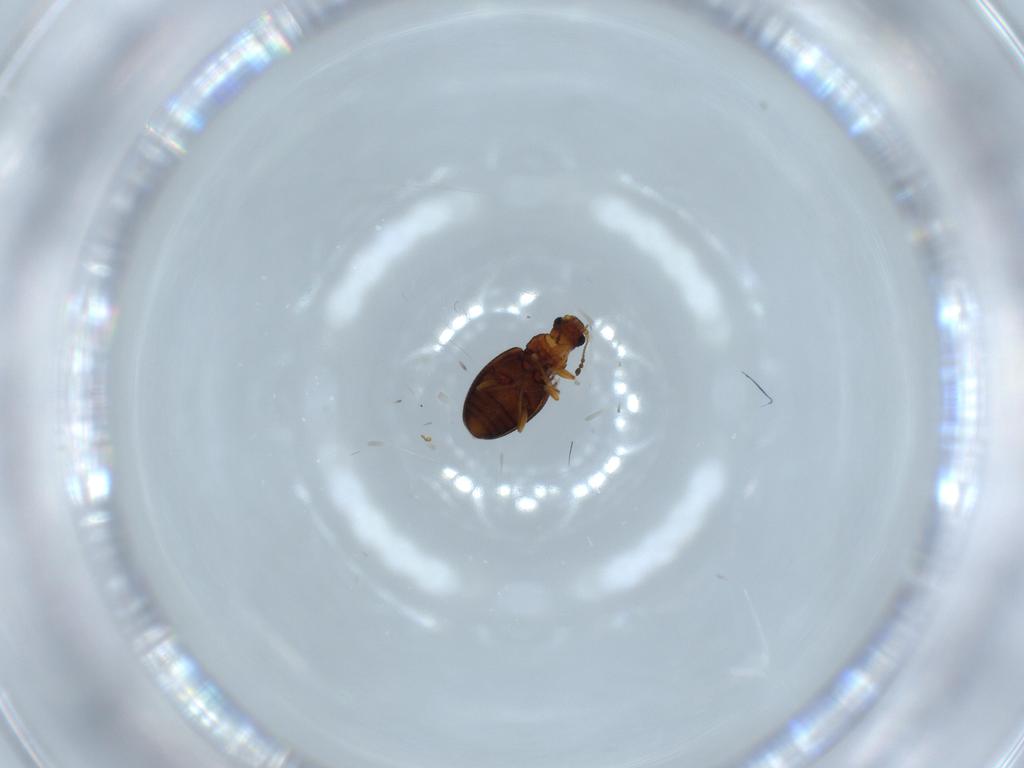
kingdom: Animalia
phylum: Arthropoda
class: Insecta
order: Coleoptera
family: Latridiidae
